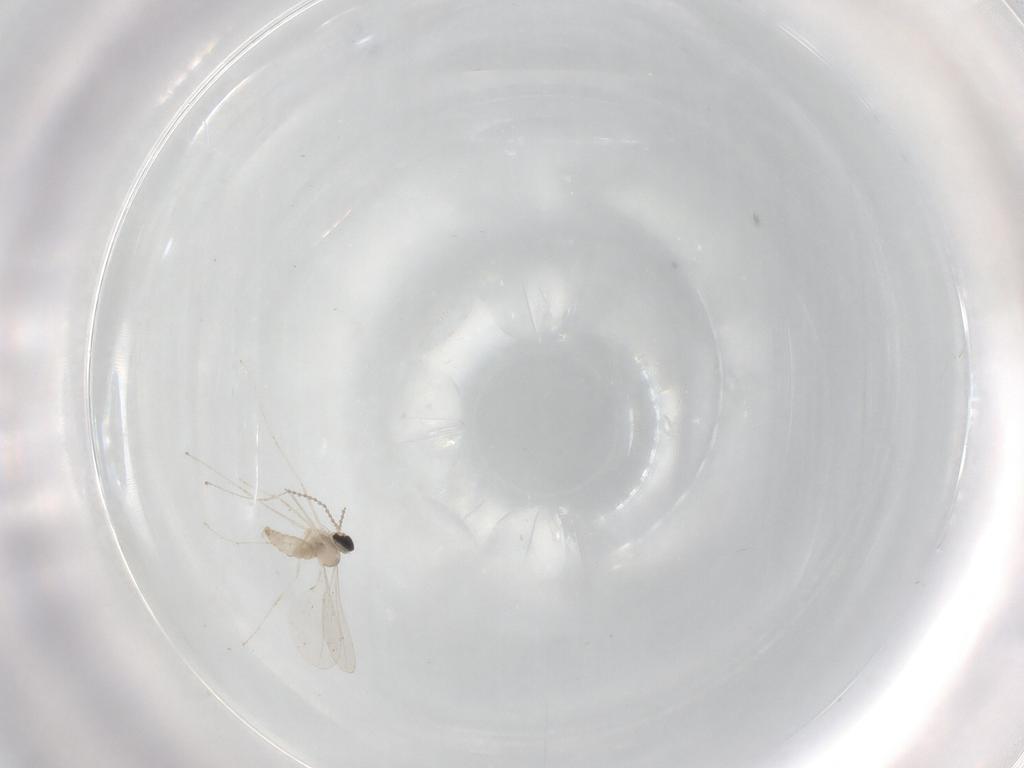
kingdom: Animalia
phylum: Arthropoda
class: Insecta
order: Diptera
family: Cecidomyiidae
